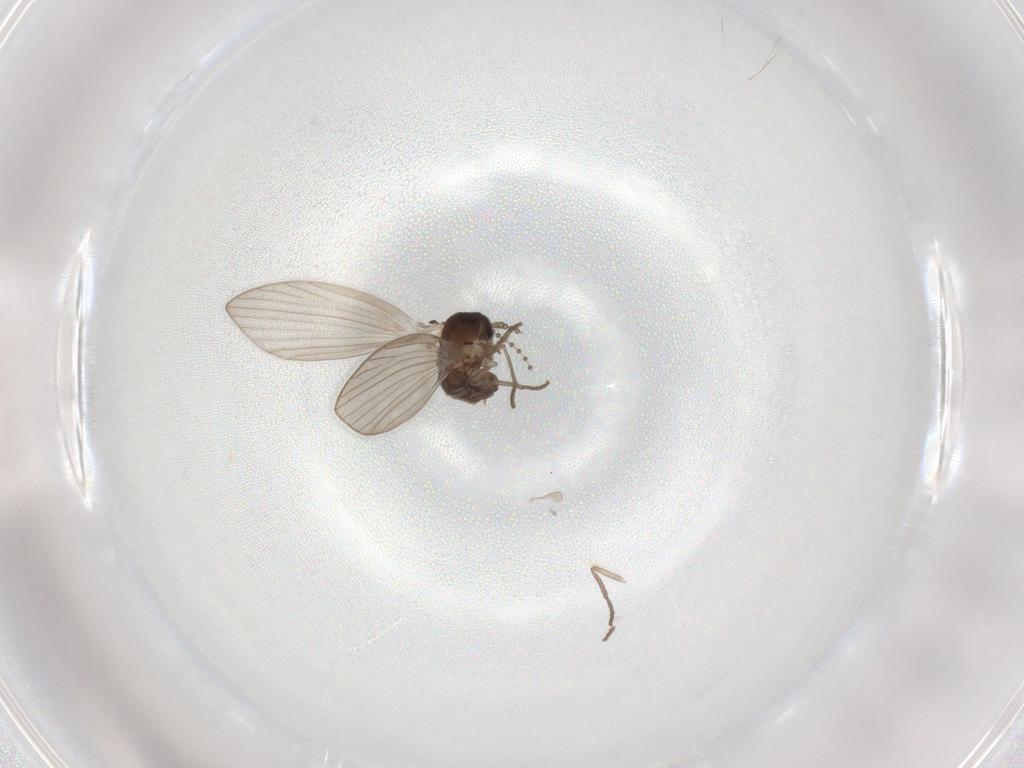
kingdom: Animalia
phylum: Arthropoda
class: Insecta
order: Diptera
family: Psychodidae
